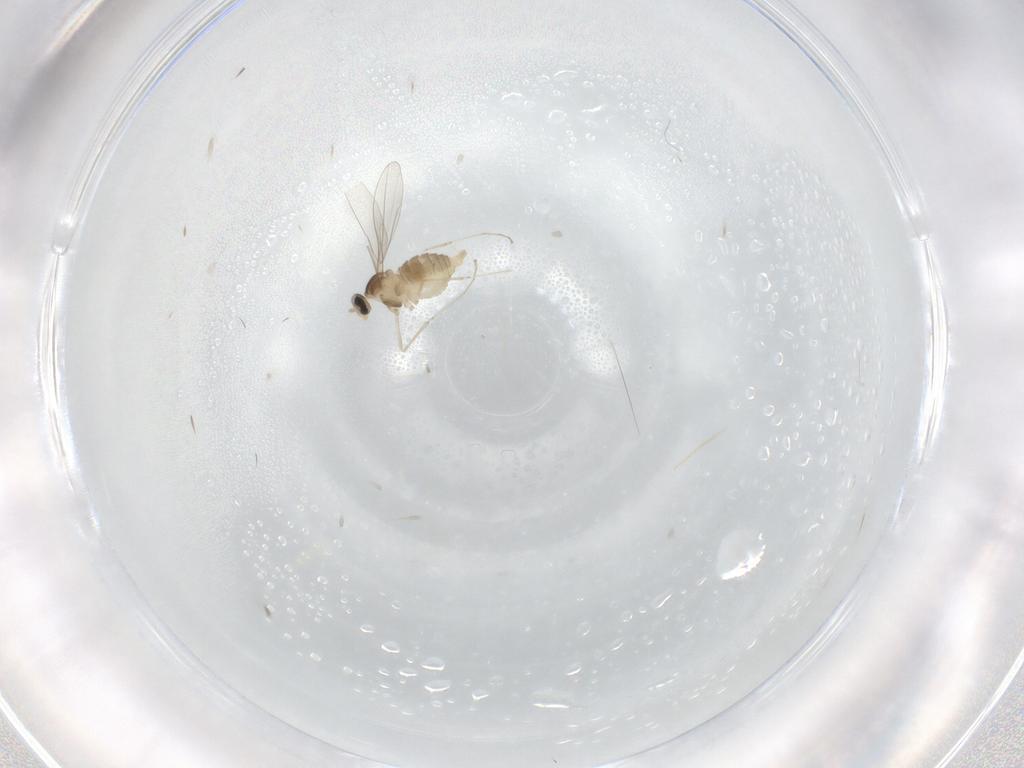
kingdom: Animalia
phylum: Arthropoda
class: Insecta
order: Diptera
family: Cecidomyiidae
